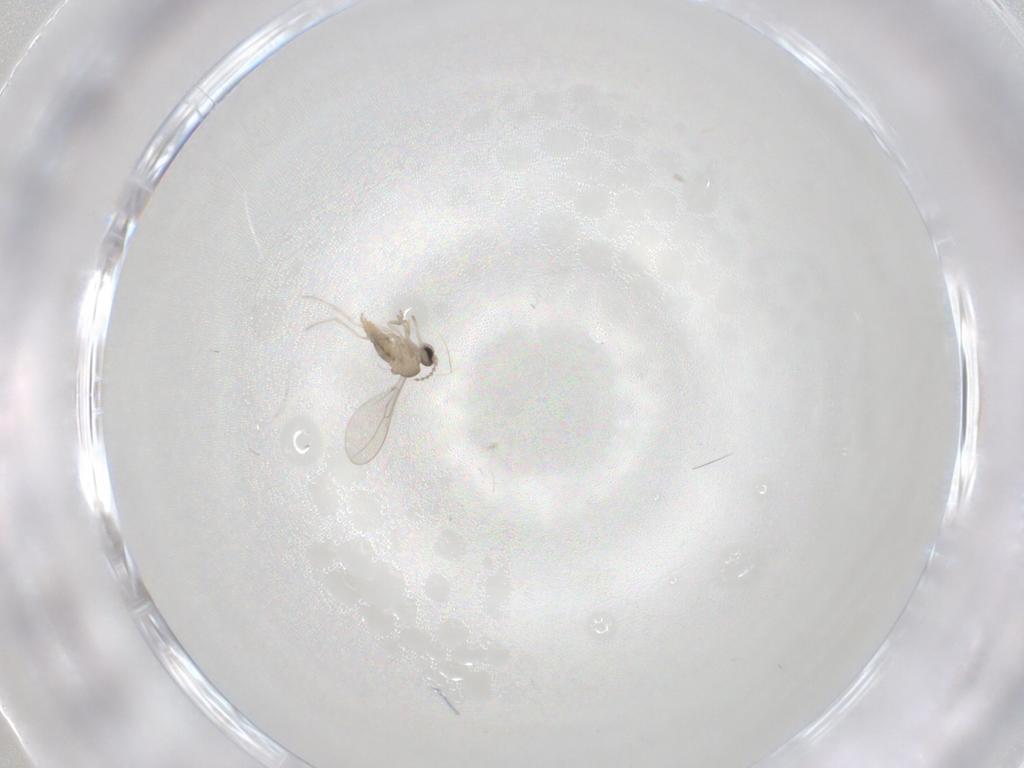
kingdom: Animalia
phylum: Arthropoda
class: Insecta
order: Diptera
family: Cecidomyiidae
